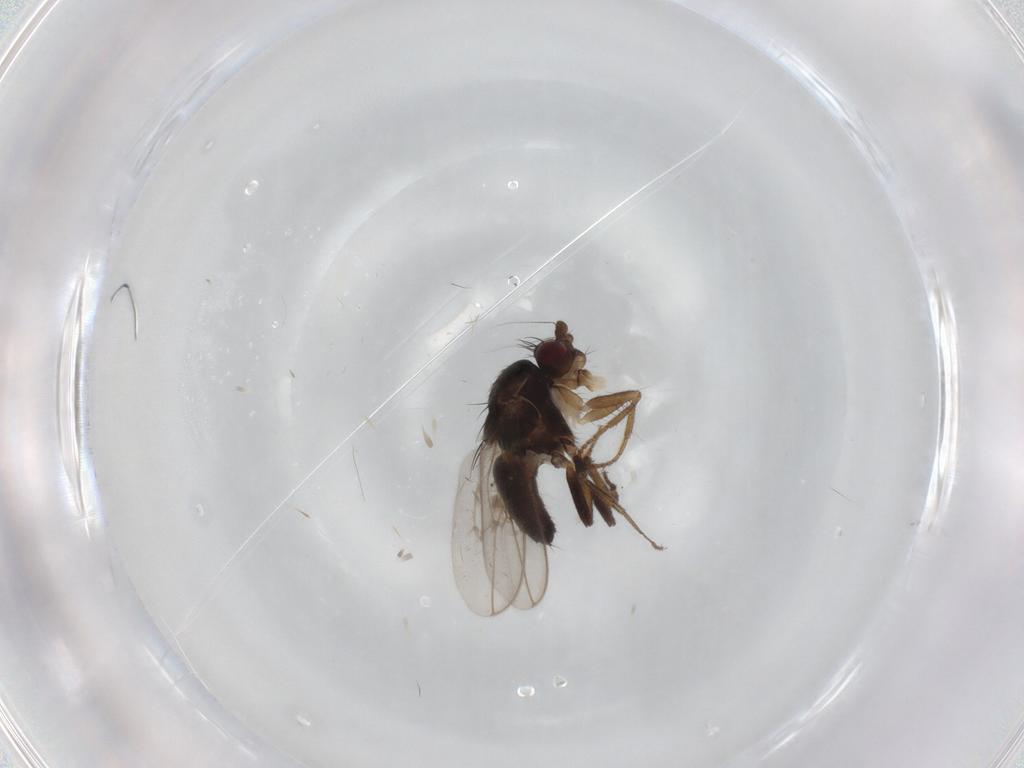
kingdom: Animalia
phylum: Arthropoda
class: Insecta
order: Diptera
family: Sphaeroceridae
